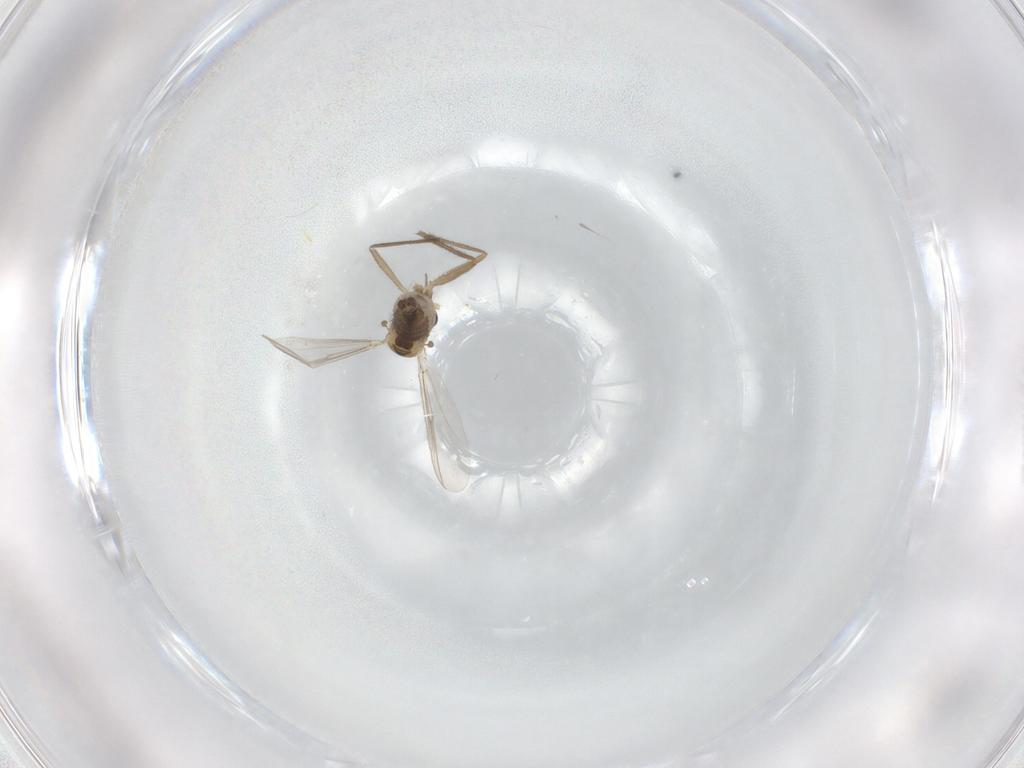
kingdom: Animalia
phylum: Arthropoda
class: Insecta
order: Diptera
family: Chironomidae
